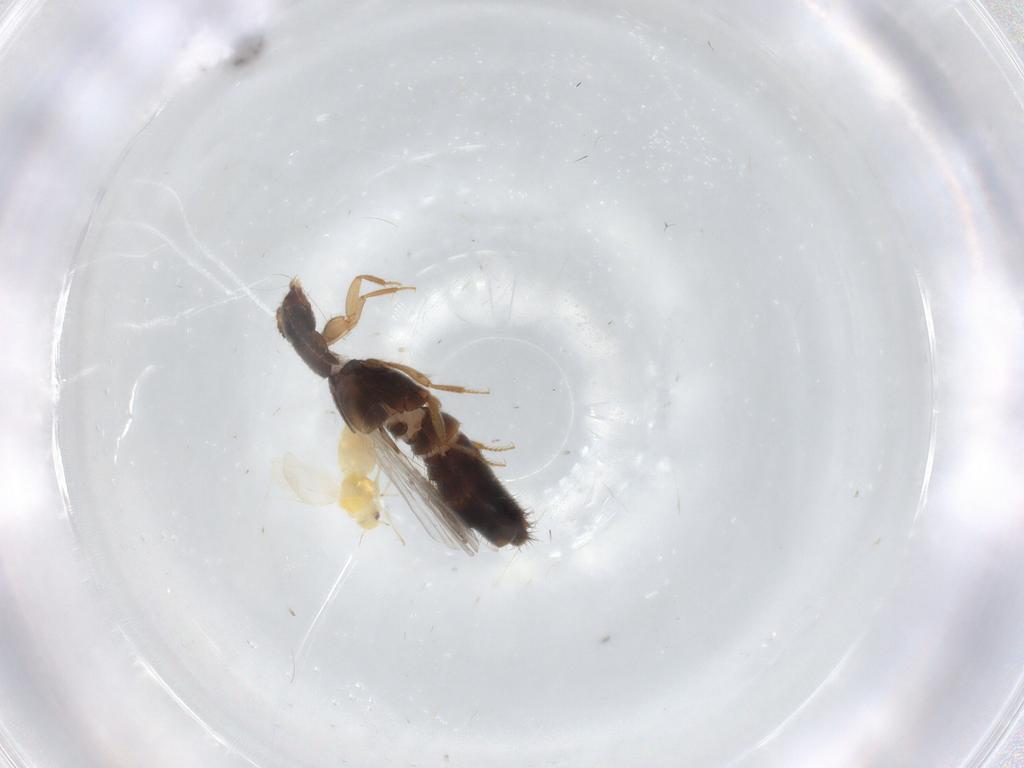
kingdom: Animalia
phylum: Arthropoda
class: Insecta
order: Coleoptera
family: Staphylinidae
